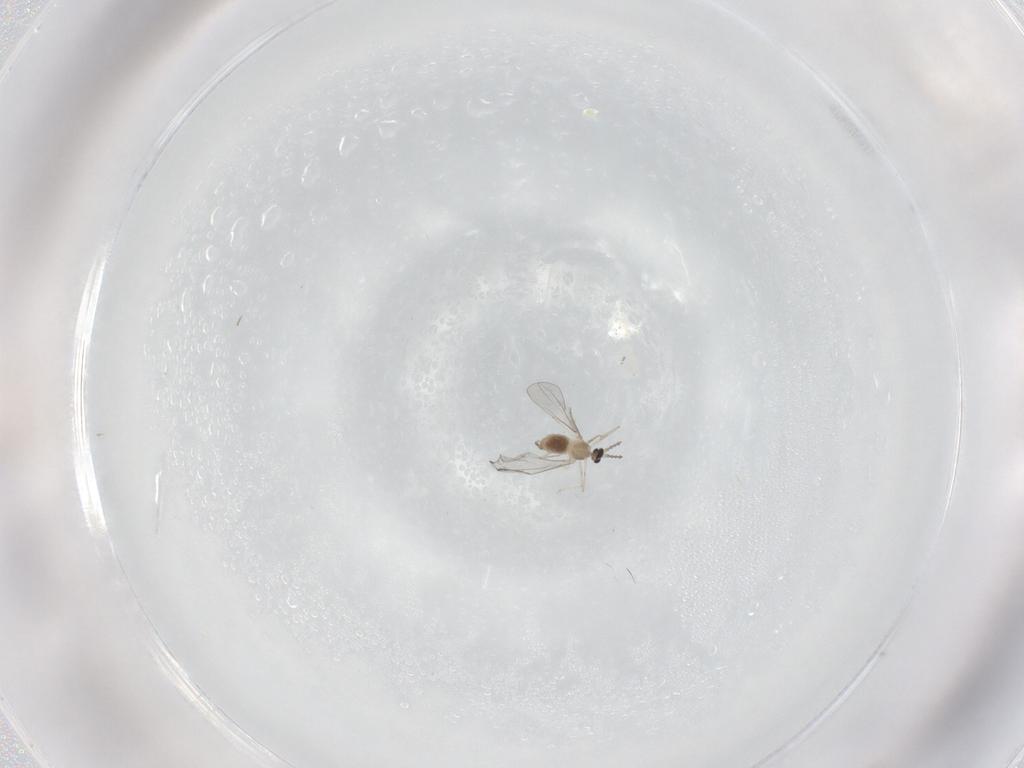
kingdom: Animalia
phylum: Arthropoda
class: Insecta
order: Diptera
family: Cecidomyiidae
